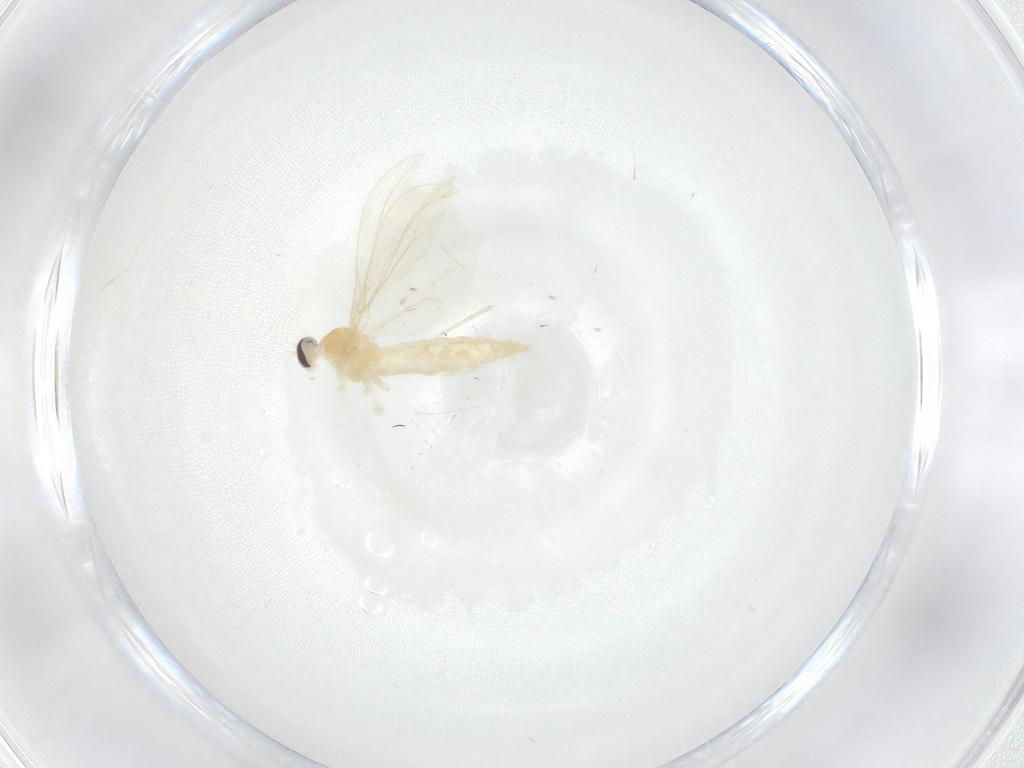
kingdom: Animalia
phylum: Arthropoda
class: Insecta
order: Diptera
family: Cecidomyiidae
